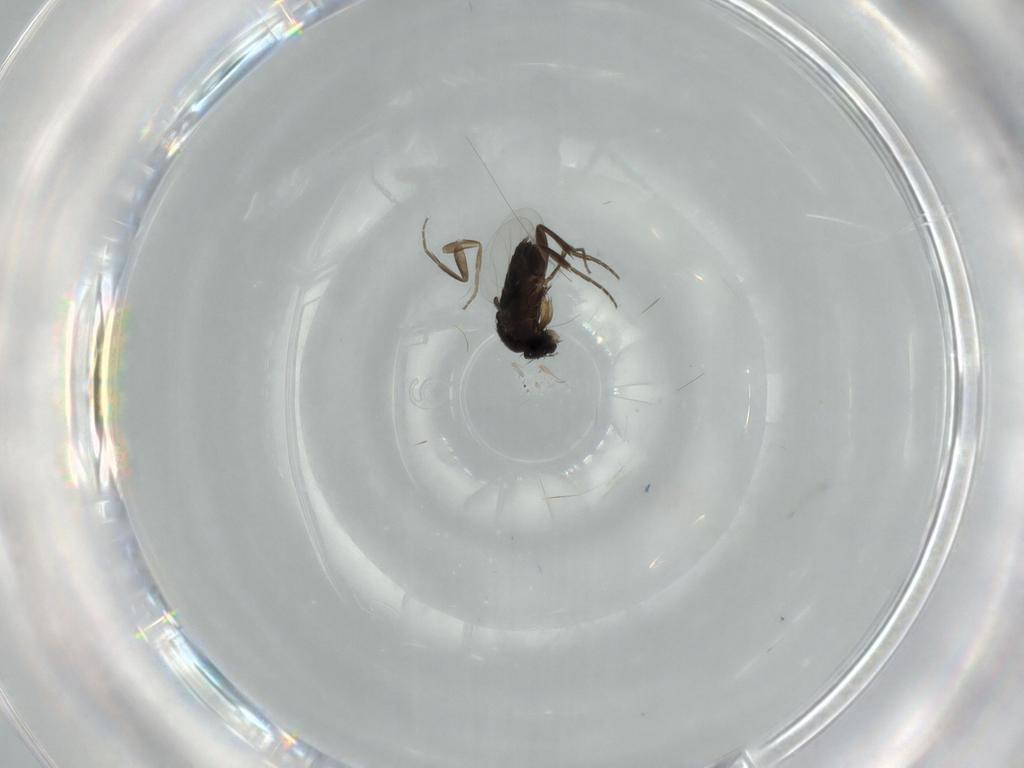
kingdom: Animalia
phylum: Arthropoda
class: Insecta
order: Diptera
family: Phoridae
